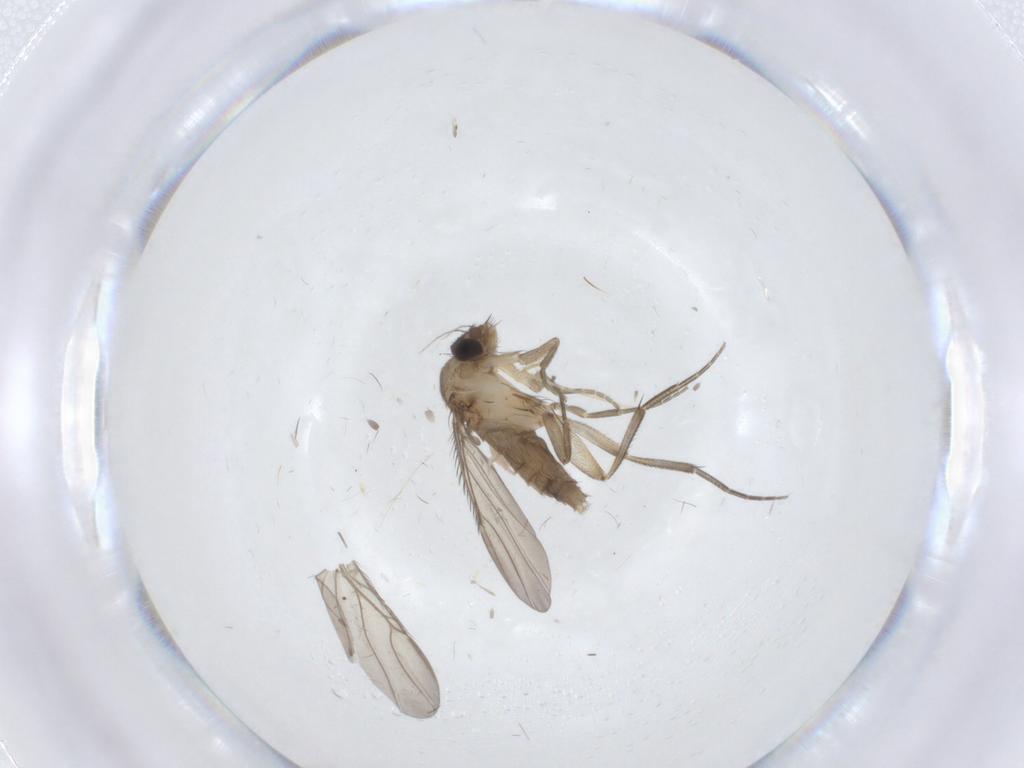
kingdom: Animalia
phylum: Arthropoda
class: Insecta
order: Diptera
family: Phoridae
